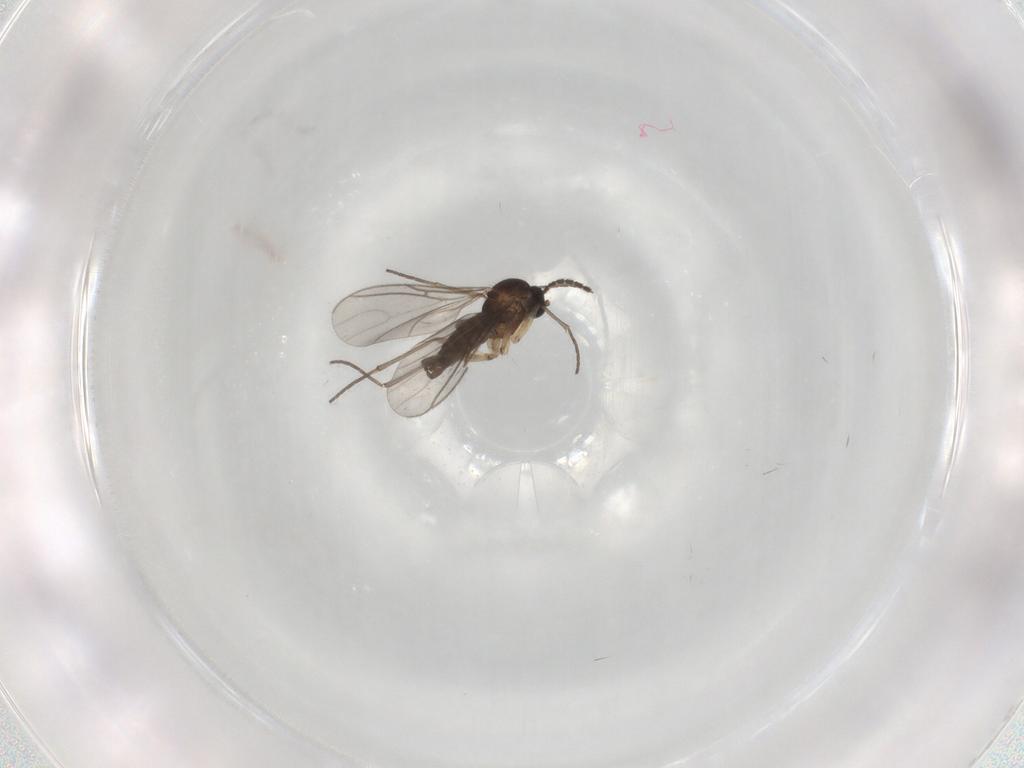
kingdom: Animalia
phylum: Arthropoda
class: Insecta
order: Diptera
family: Sciaridae
